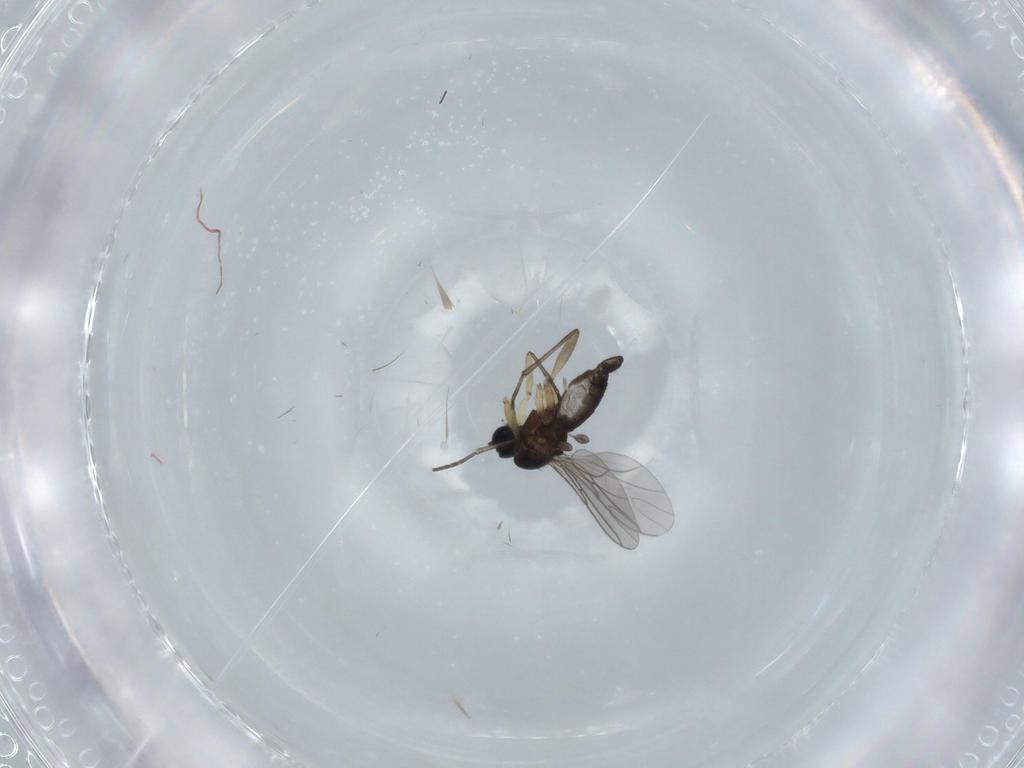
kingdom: Animalia
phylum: Arthropoda
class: Insecta
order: Diptera
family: Sciaridae
